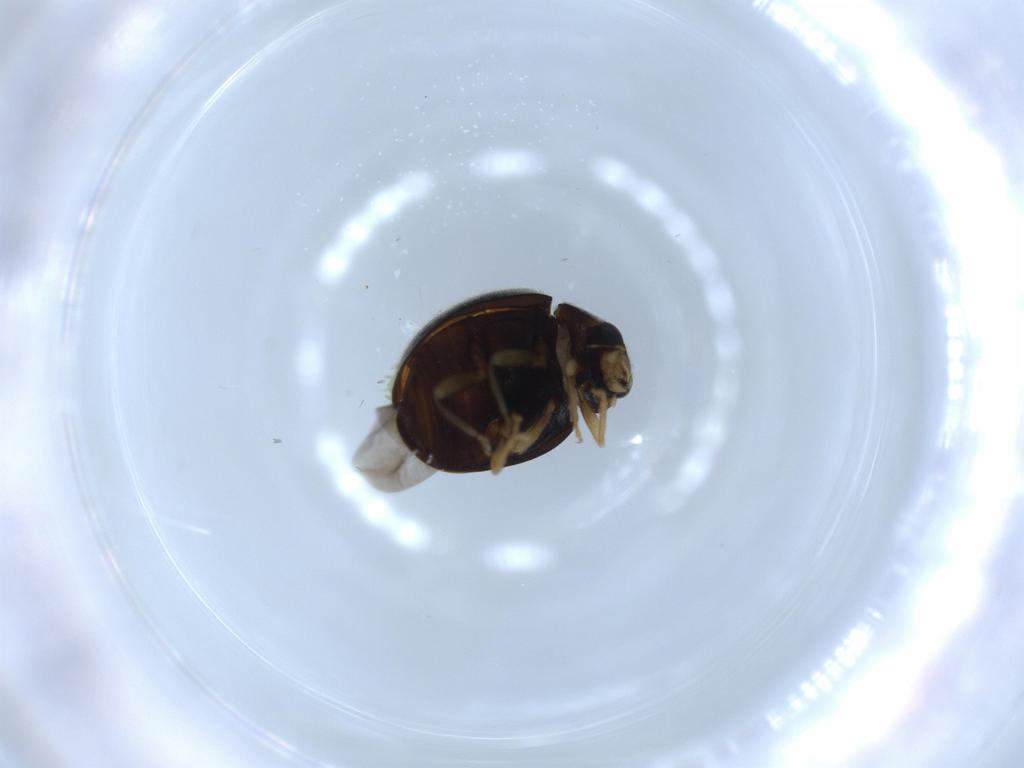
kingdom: Animalia
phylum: Arthropoda
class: Insecta
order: Coleoptera
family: Coccinellidae
